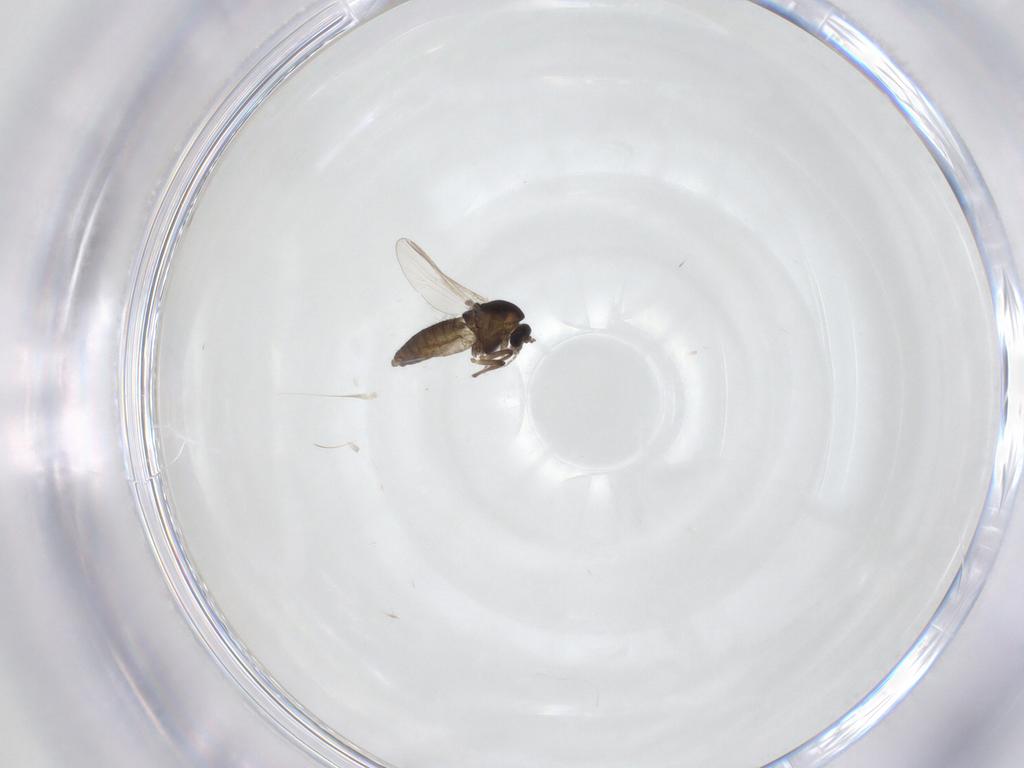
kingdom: Animalia
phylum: Arthropoda
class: Insecta
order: Diptera
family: Chironomidae
